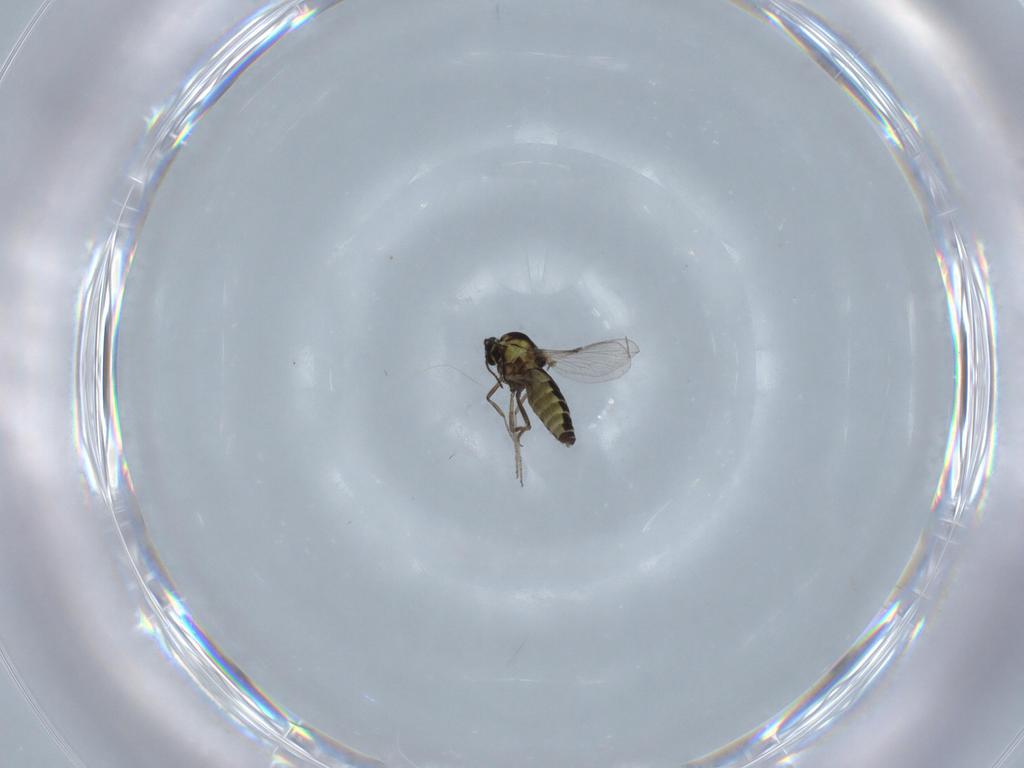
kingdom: Animalia
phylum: Arthropoda
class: Insecta
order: Diptera
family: Ceratopogonidae
